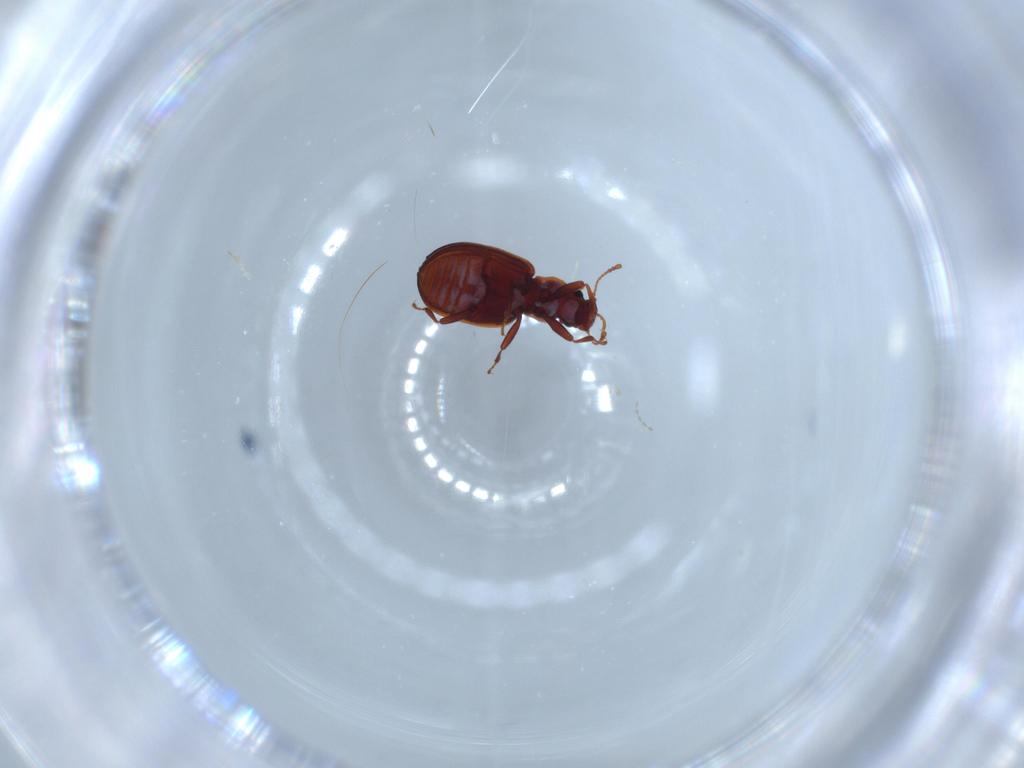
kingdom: Animalia
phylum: Arthropoda
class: Insecta
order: Coleoptera
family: Latridiidae
